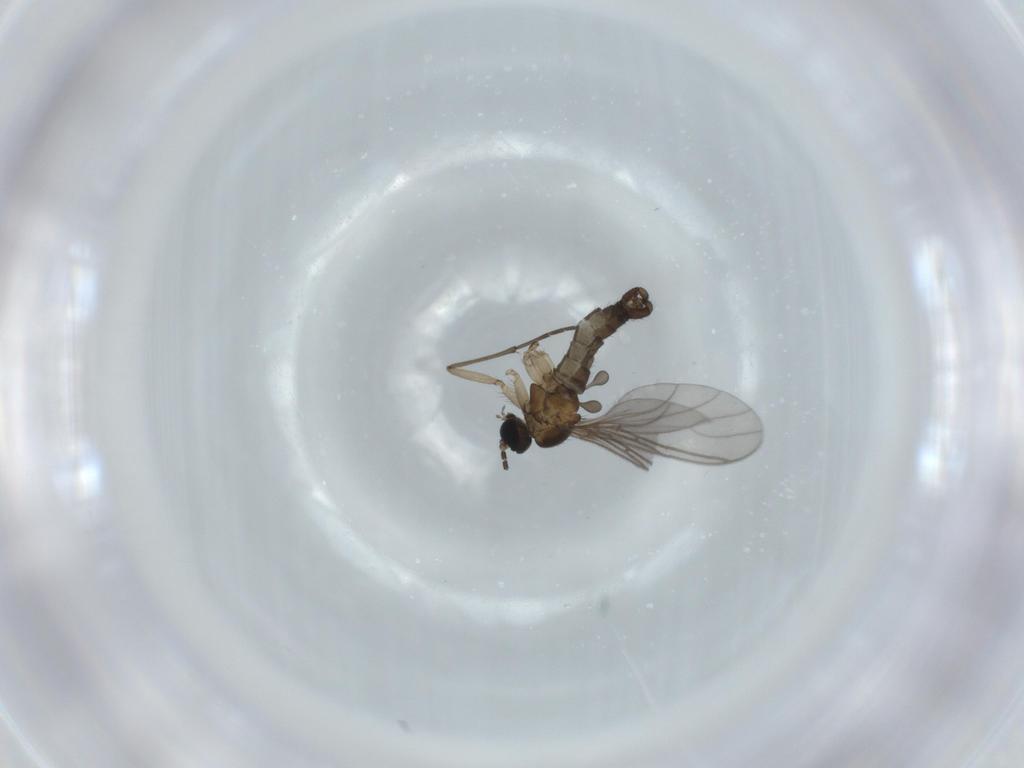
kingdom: Animalia
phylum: Arthropoda
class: Insecta
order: Diptera
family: Sciaridae
